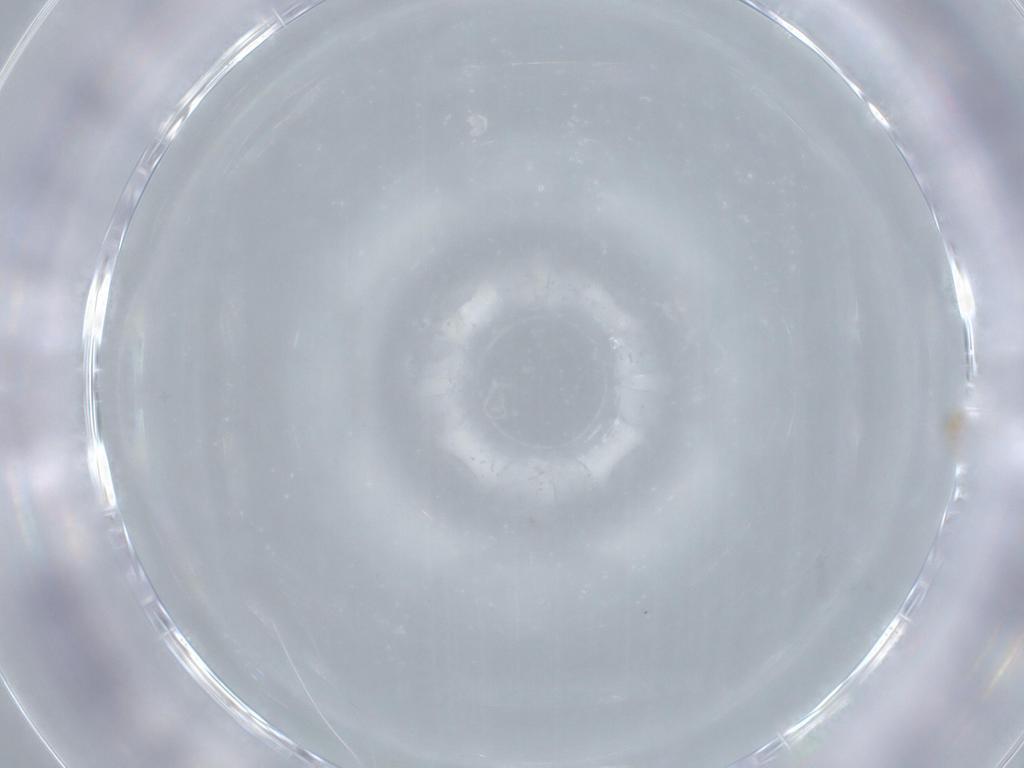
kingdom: Animalia
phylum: Arthropoda
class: Insecta
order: Hymenoptera
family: Mymaridae
